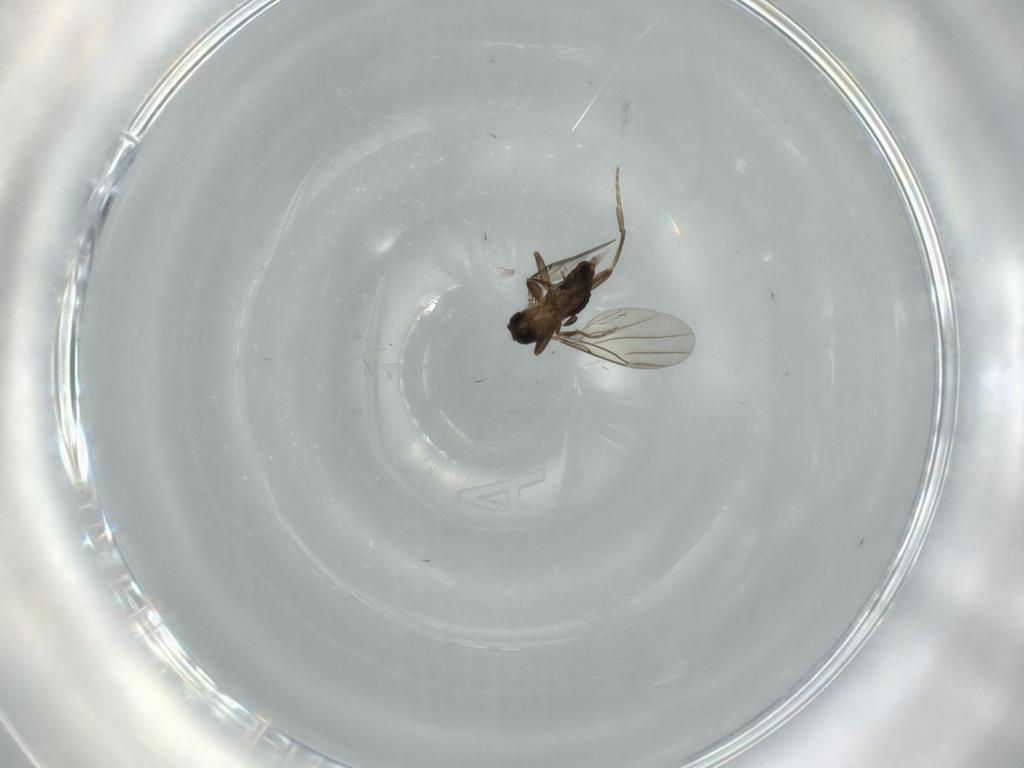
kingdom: Animalia
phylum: Arthropoda
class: Insecta
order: Diptera
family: Phoridae
